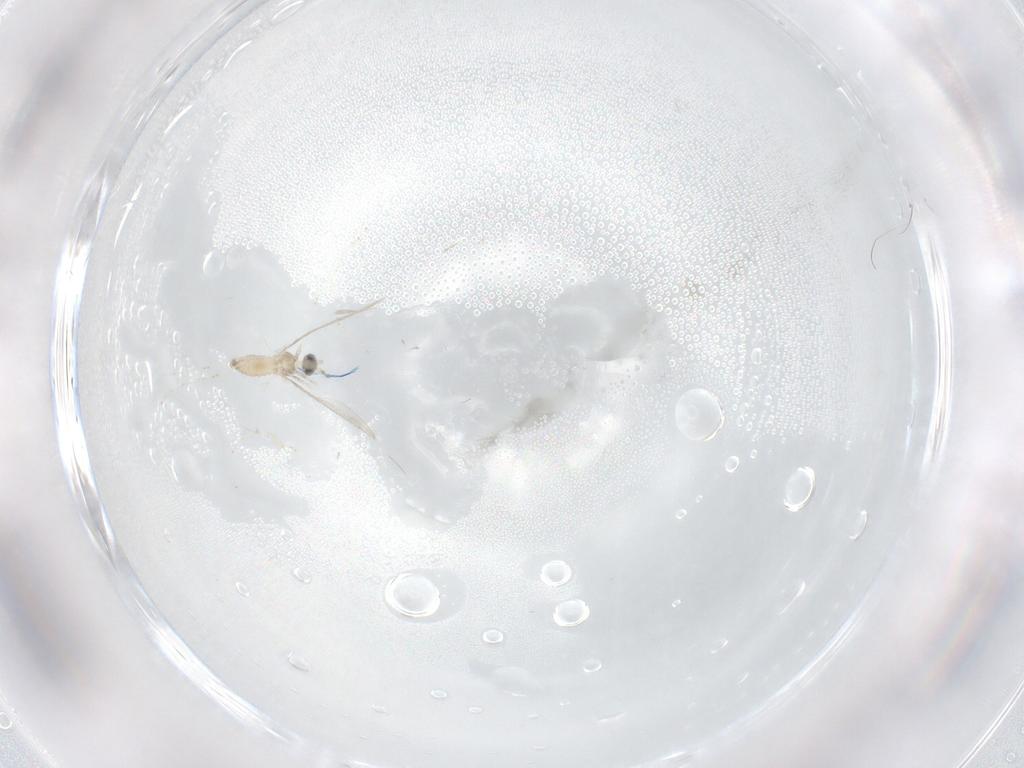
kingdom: Animalia
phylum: Arthropoda
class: Insecta
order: Diptera
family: Cecidomyiidae
